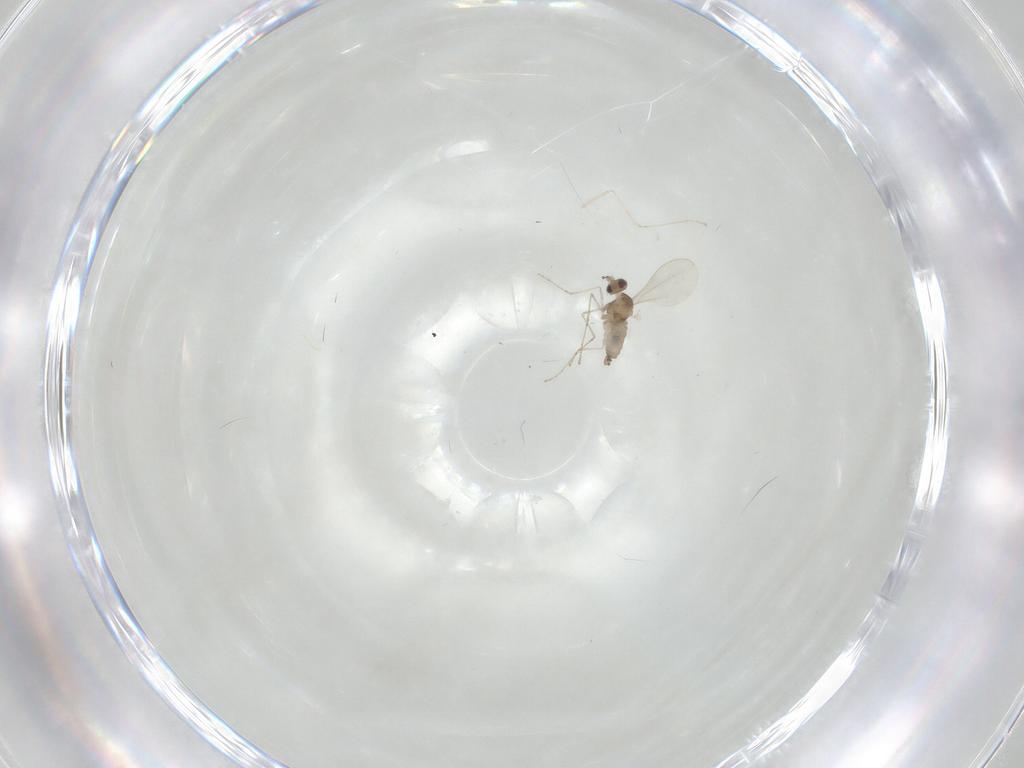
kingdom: Animalia
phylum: Arthropoda
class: Insecta
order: Diptera
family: Cecidomyiidae
